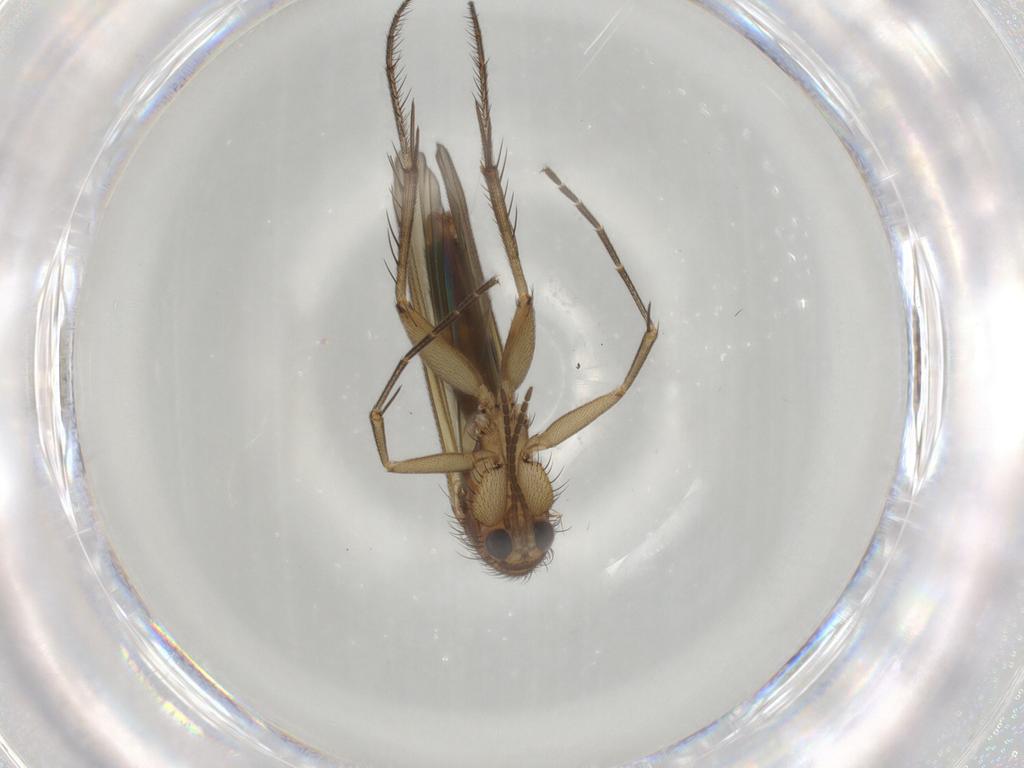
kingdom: Animalia
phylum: Arthropoda
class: Insecta
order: Diptera
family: Mycetophilidae
